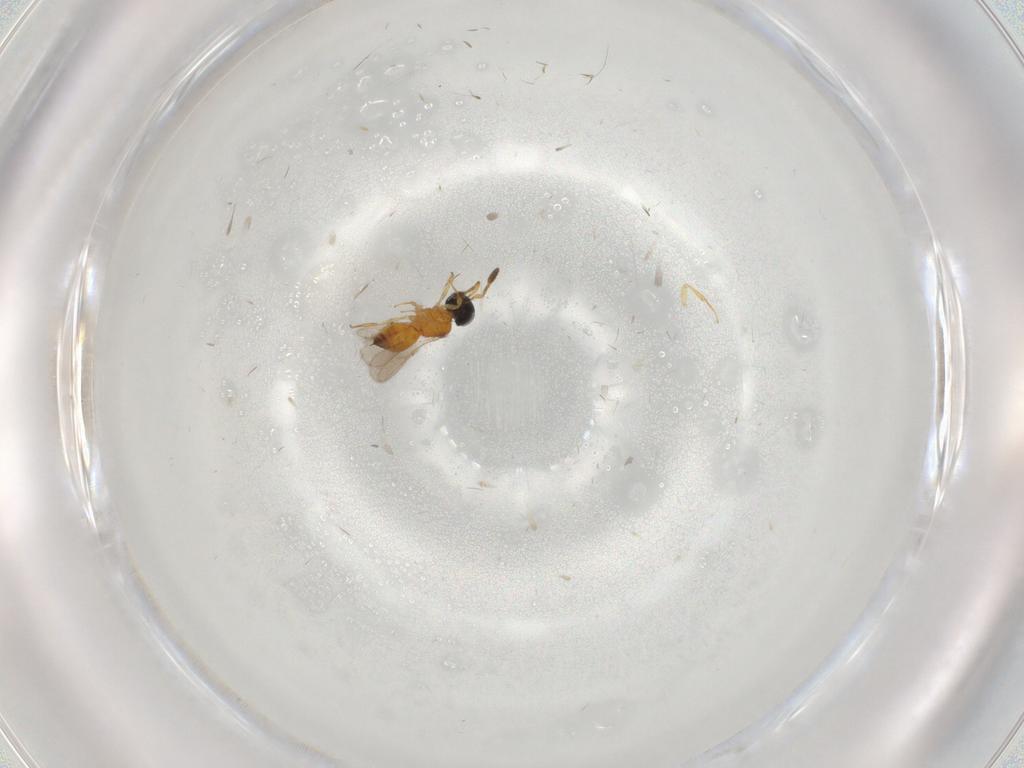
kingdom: Animalia
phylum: Arthropoda
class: Insecta
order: Hymenoptera
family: Scelionidae
